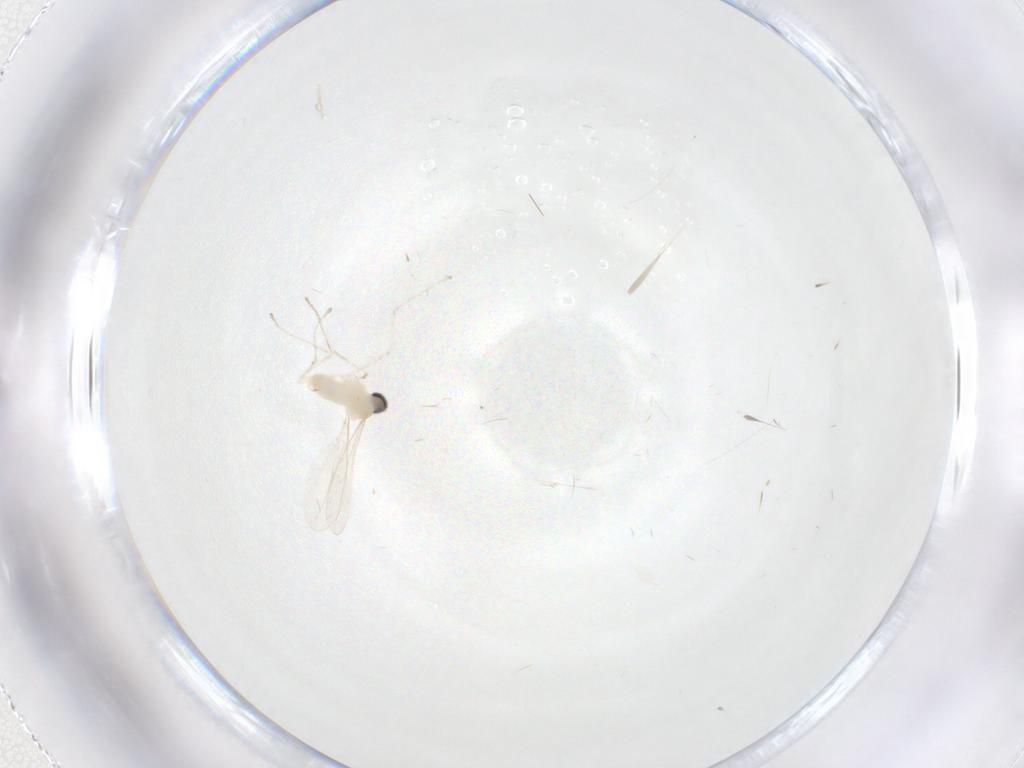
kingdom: Animalia
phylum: Arthropoda
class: Insecta
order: Diptera
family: Cecidomyiidae
